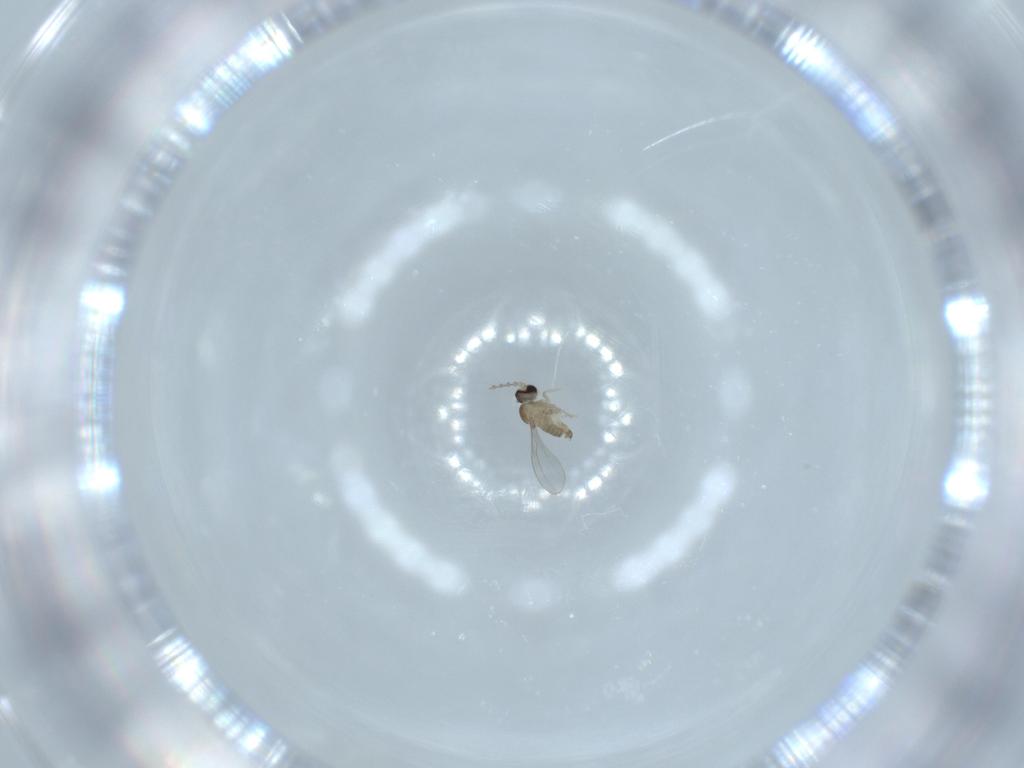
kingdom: Animalia
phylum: Arthropoda
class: Insecta
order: Diptera
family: Cecidomyiidae
